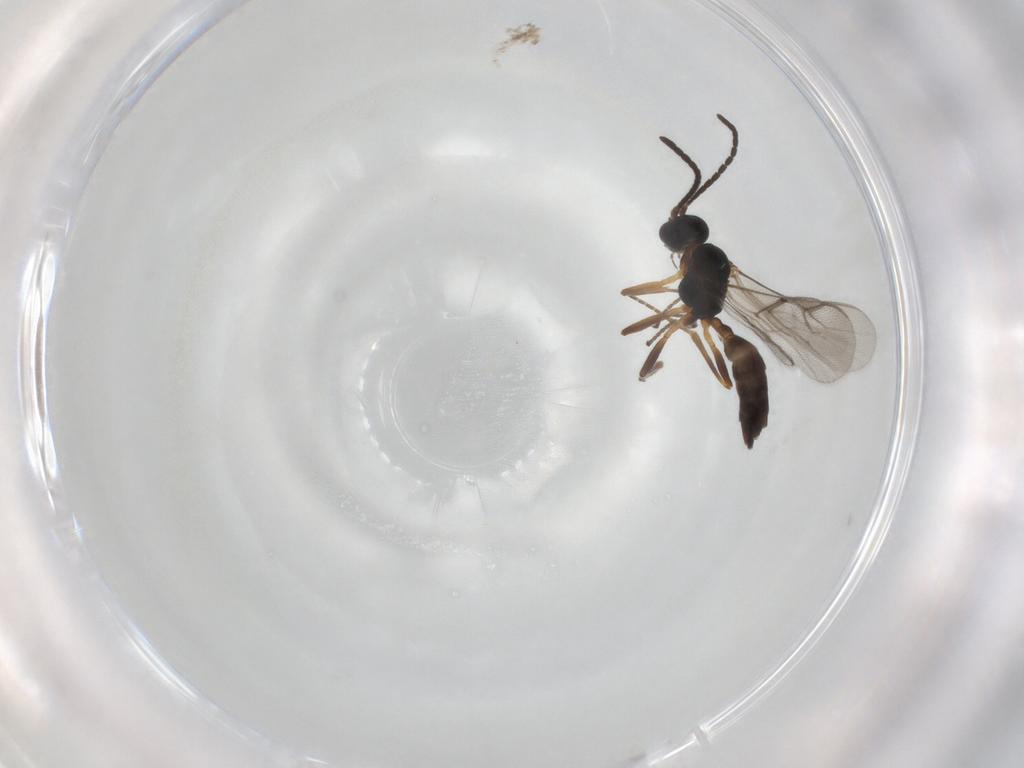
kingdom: Animalia
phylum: Arthropoda
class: Insecta
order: Hymenoptera
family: Braconidae
